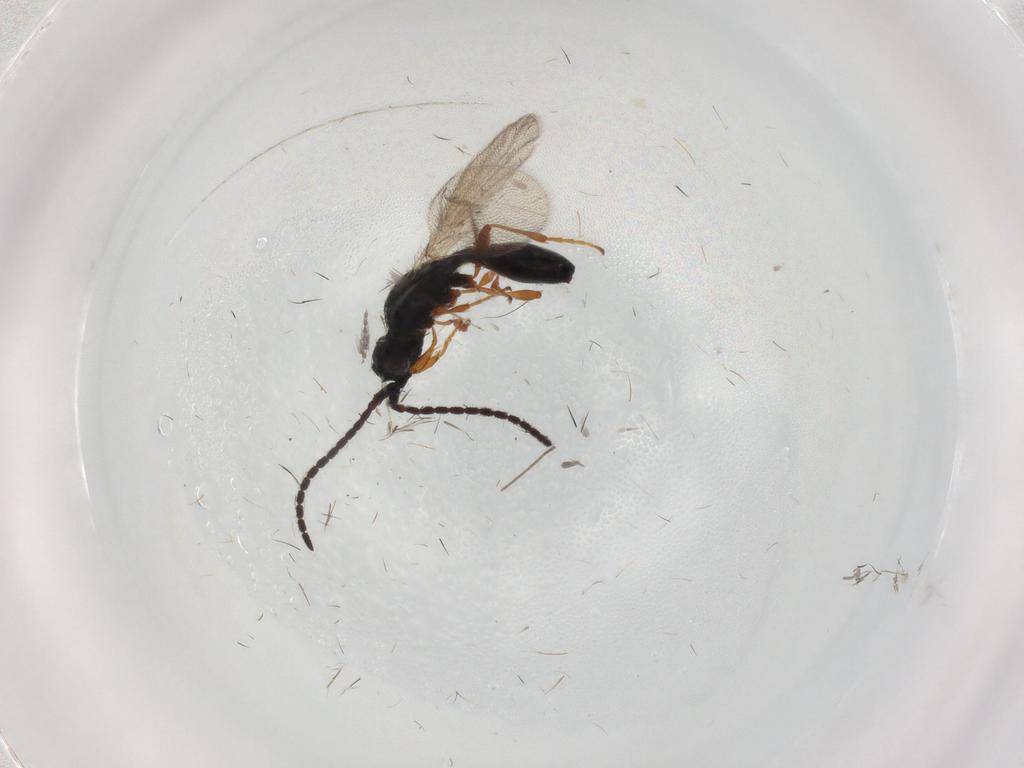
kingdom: Animalia
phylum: Arthropoda
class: Insecta
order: Hymenoptera
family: Diapriidae
